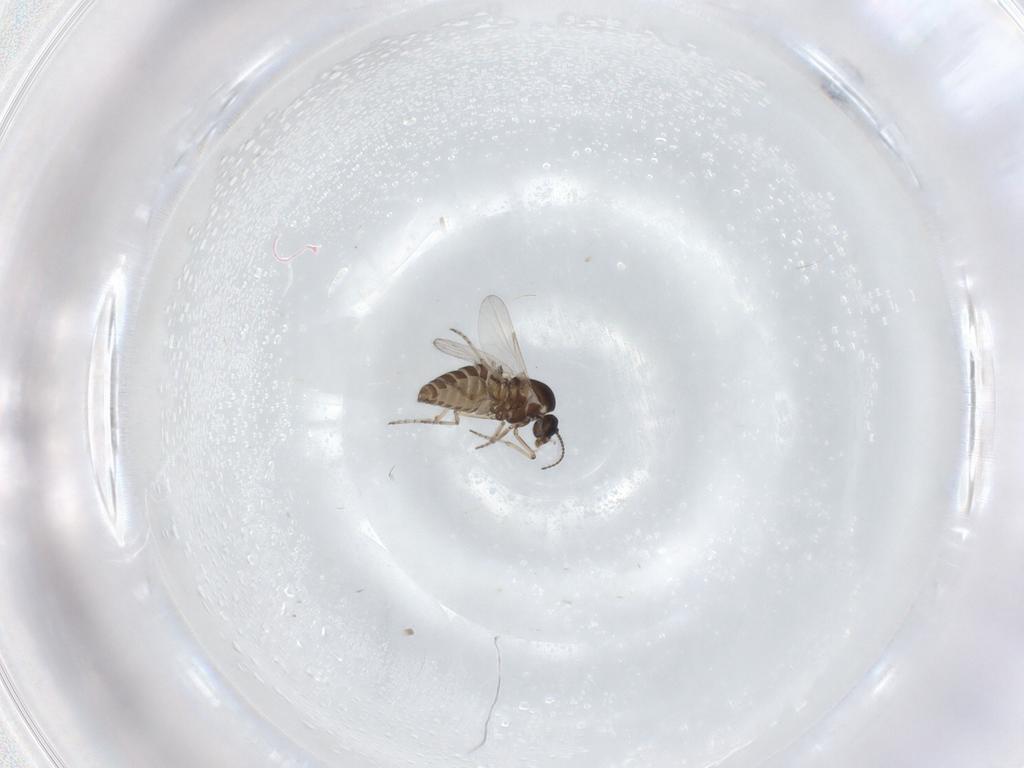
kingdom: Animalia
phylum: Arthropoda
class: Insecta
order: Diptera
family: Ceratopogonidae
